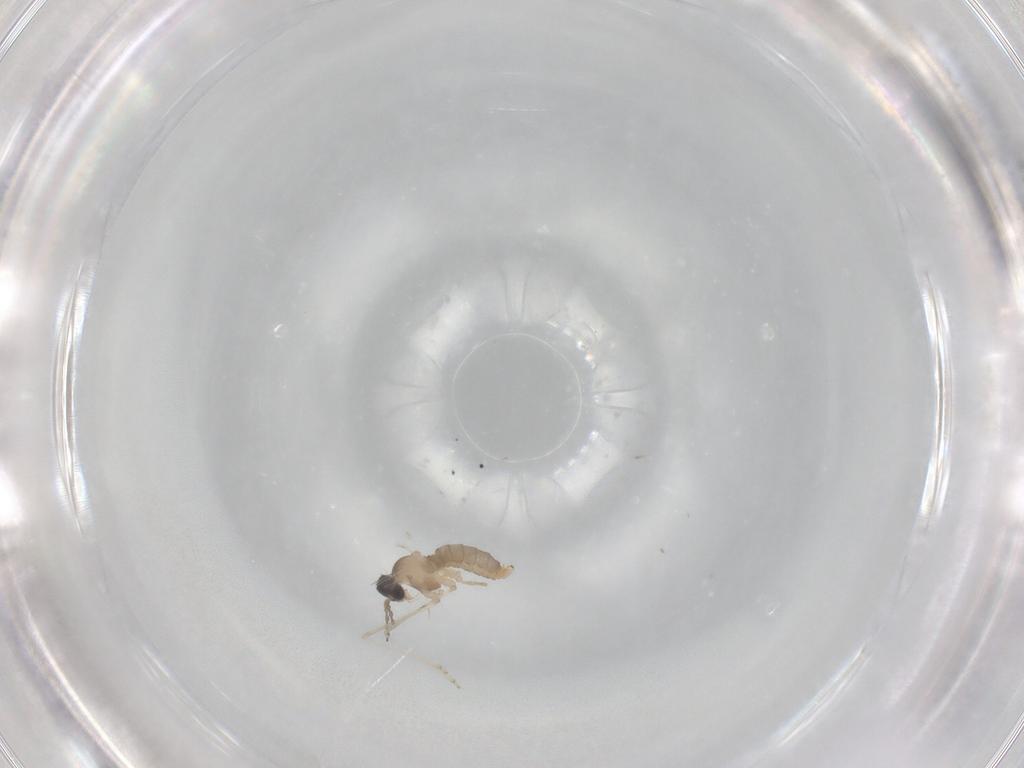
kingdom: Animalia
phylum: Arthropoda
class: Insecta
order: Diptera
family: Cecidomyiidae
